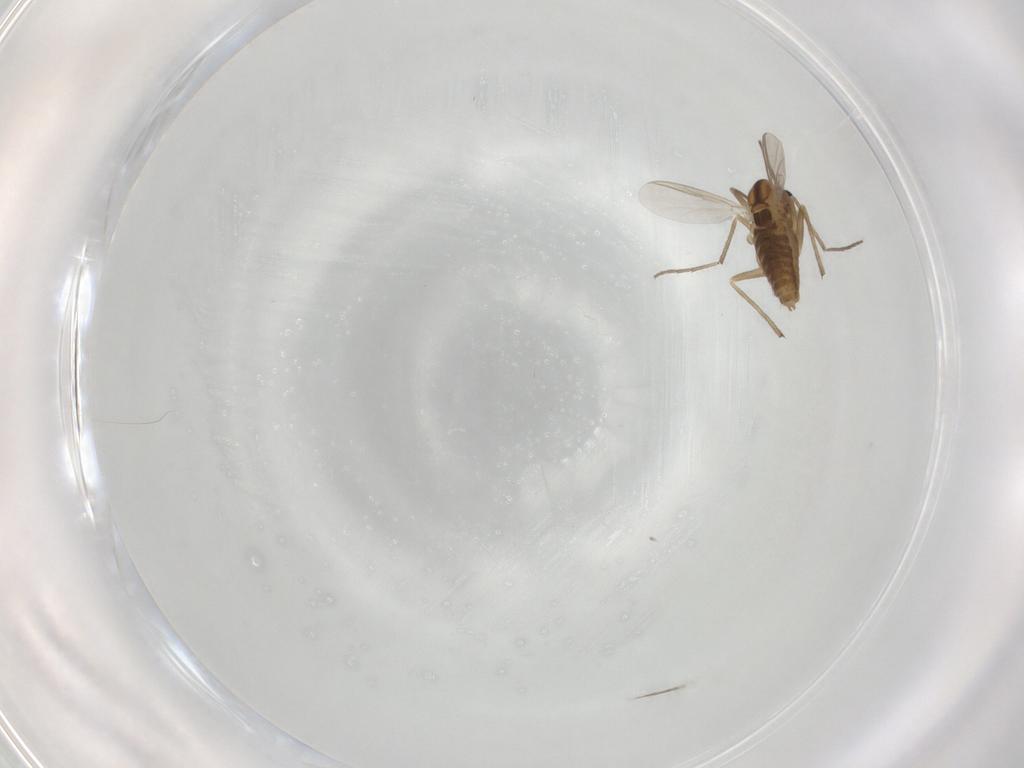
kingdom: Animalia
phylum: Arthropoda
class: Insecta
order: Diptera
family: Chironomidae
